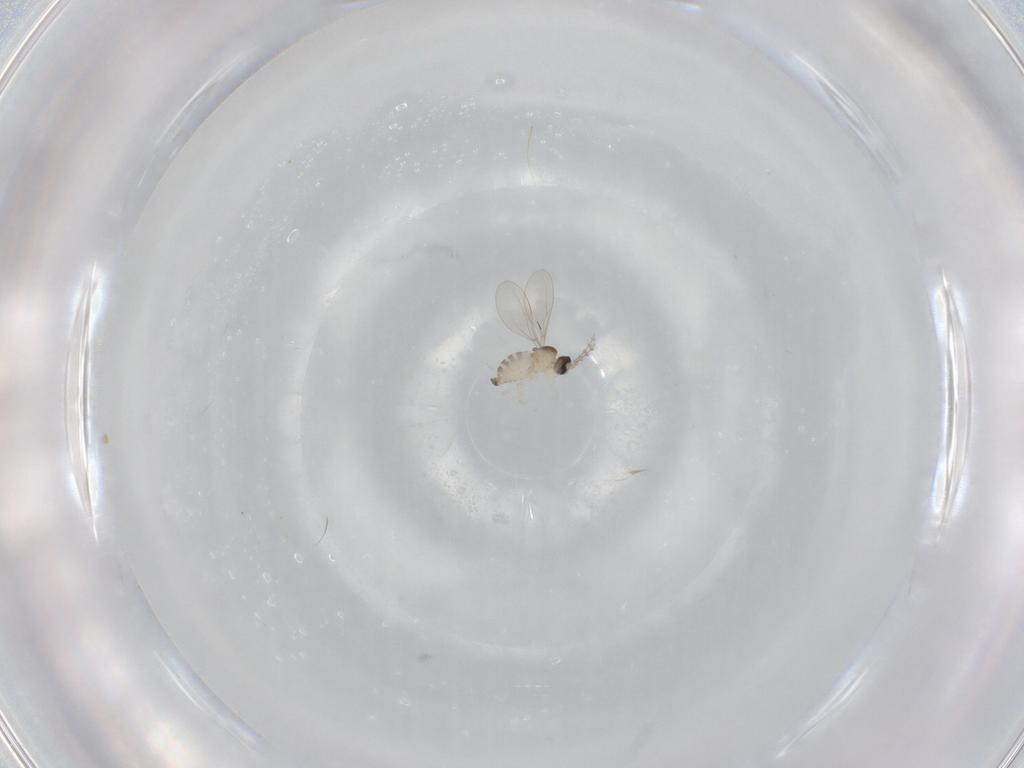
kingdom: Animalia
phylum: Arthropoda
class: Insecta
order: Diptera
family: Cecidomyiidae
